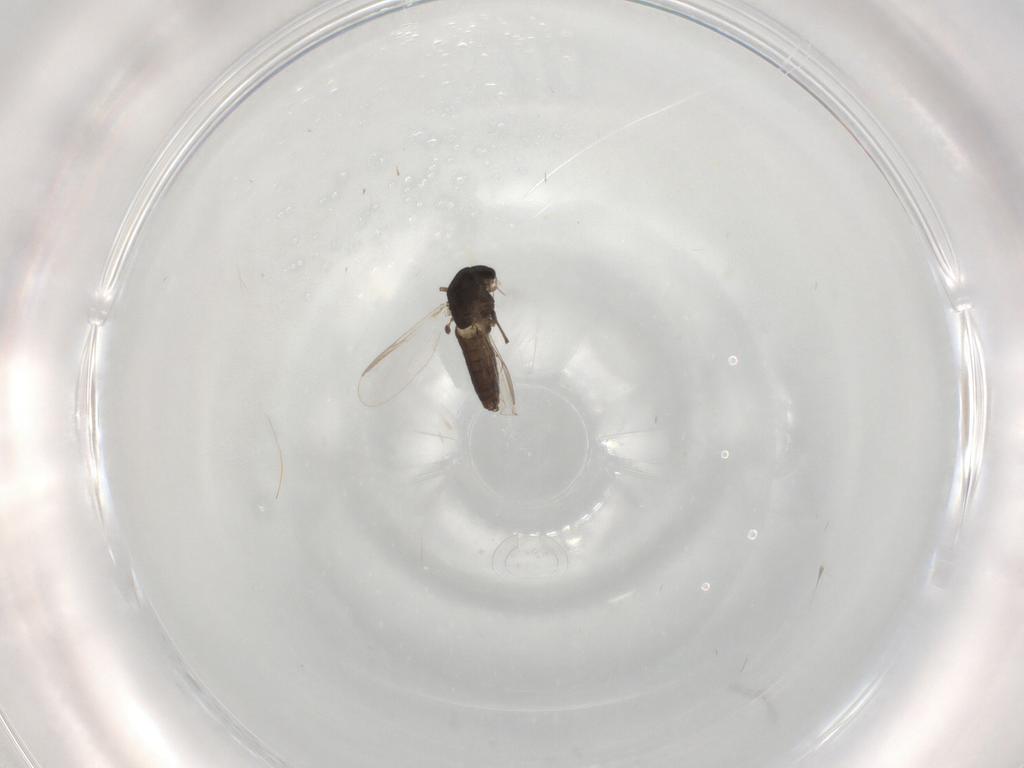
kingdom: Animalia
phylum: Arthropoda
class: Insecta
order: Diptera
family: Chironomidae
